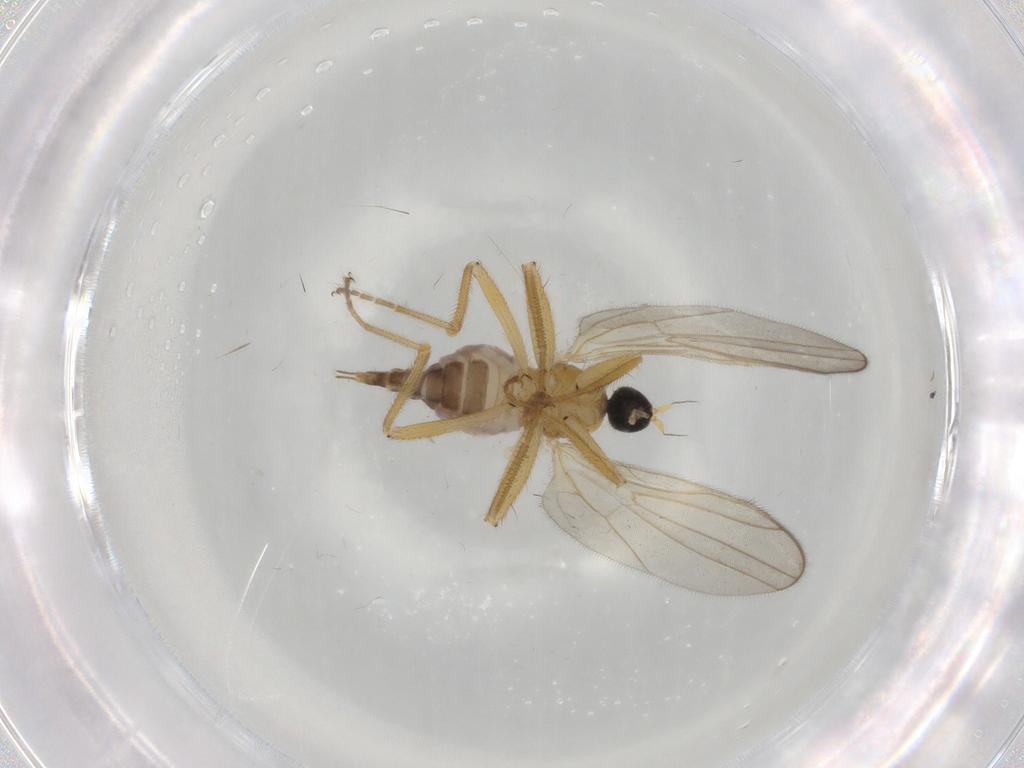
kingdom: Animalia
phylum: Arthropoda
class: Insecta
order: Diptera
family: Hybotidae
